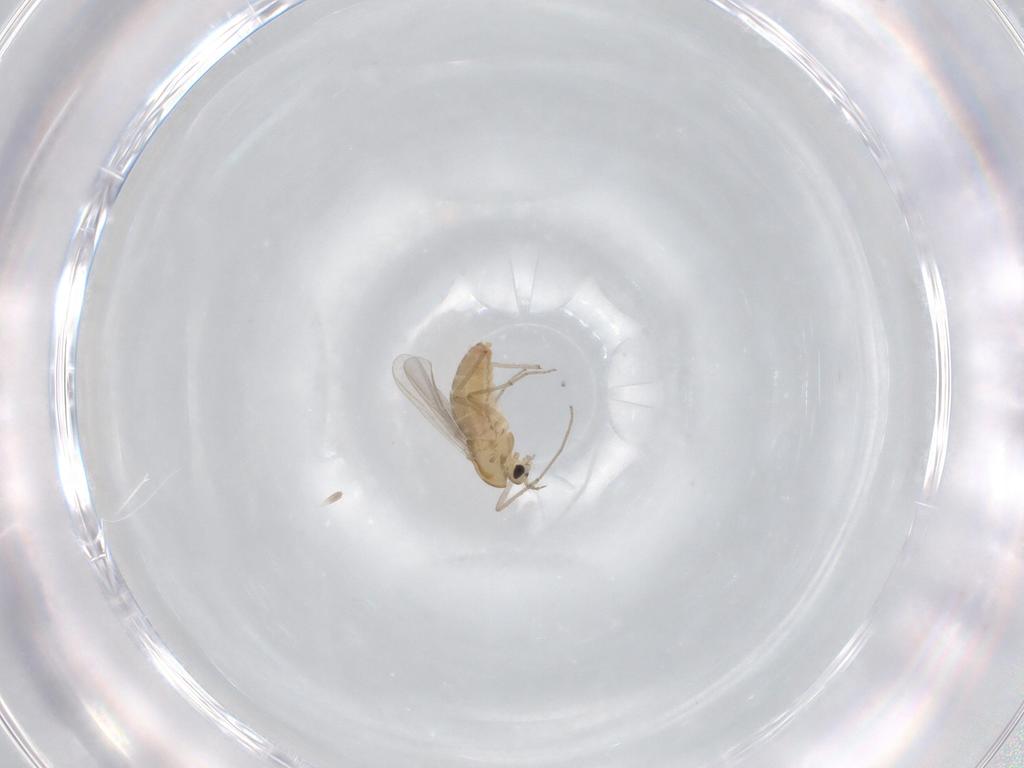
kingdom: Animalia
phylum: Arthropoda
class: Insecta
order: Diptera
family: Chironomidae
